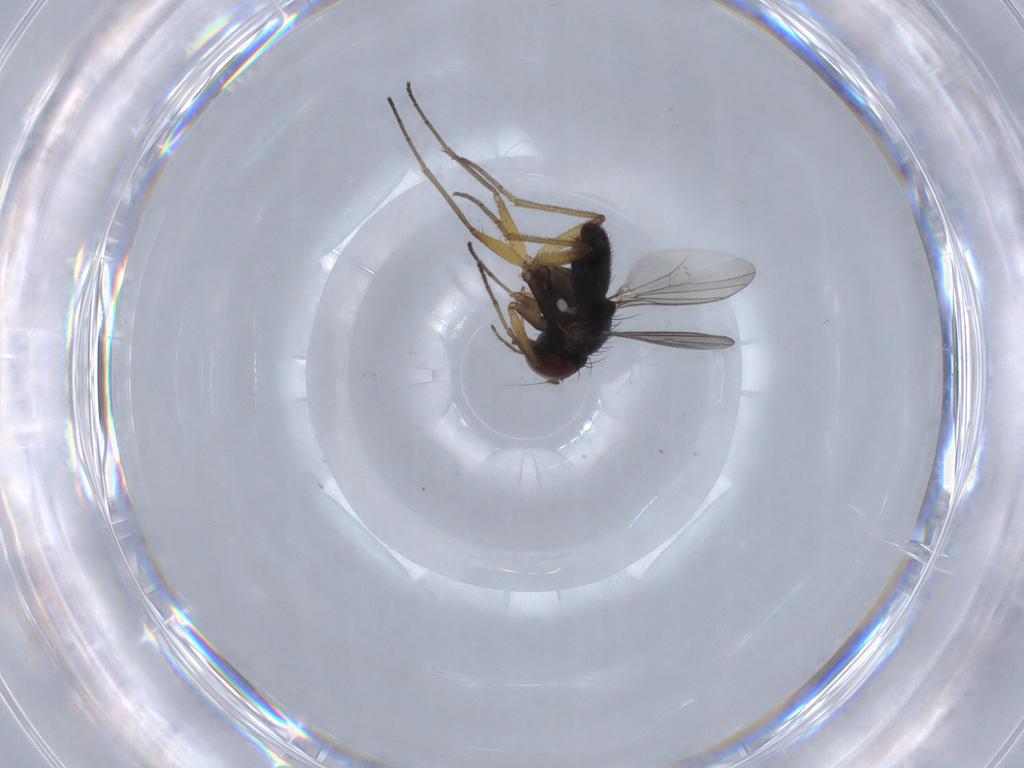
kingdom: Animalia
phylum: Arthropoda
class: Insecta
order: Diptera
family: Dolichopodidae
